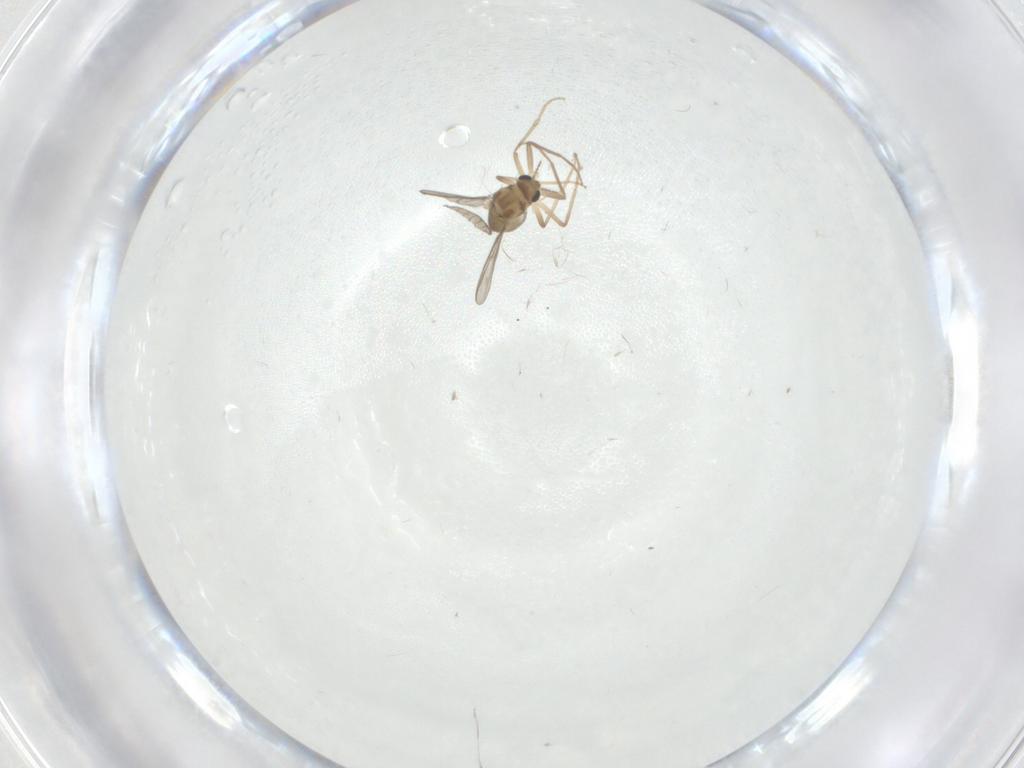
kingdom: Animalia
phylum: Arthropoda
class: Insecta
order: Diptera
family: Chironomidae
